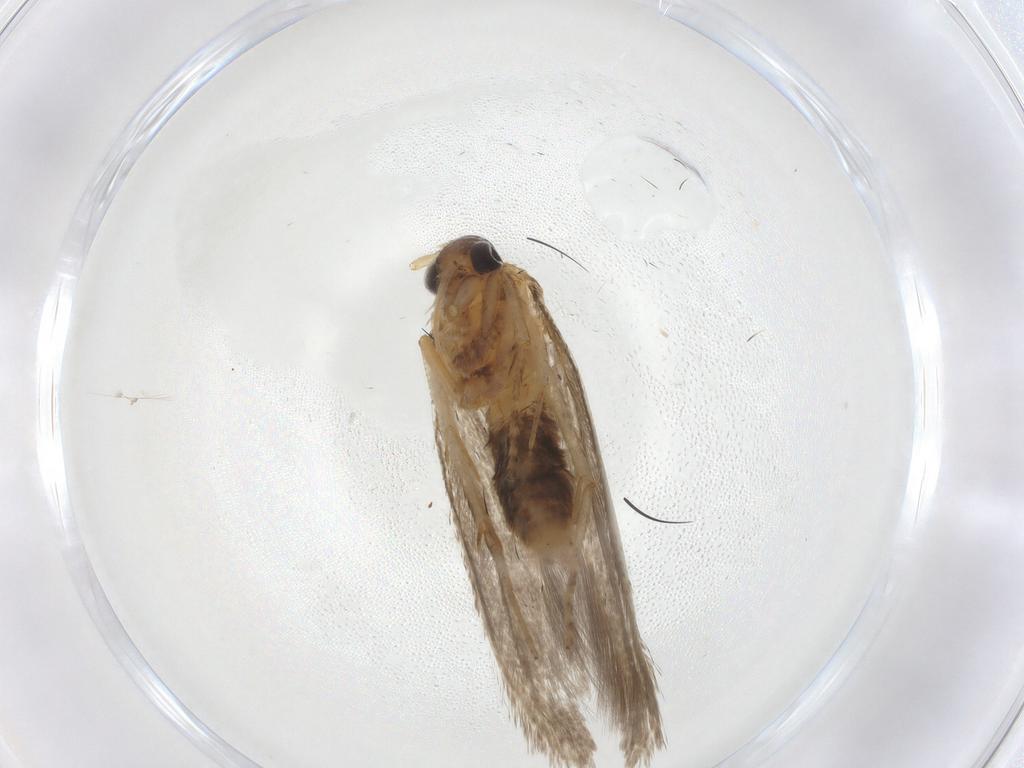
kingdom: Animalia
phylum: Arthropoda
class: Insecta
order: Lepidoptera
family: Coleophoridae
